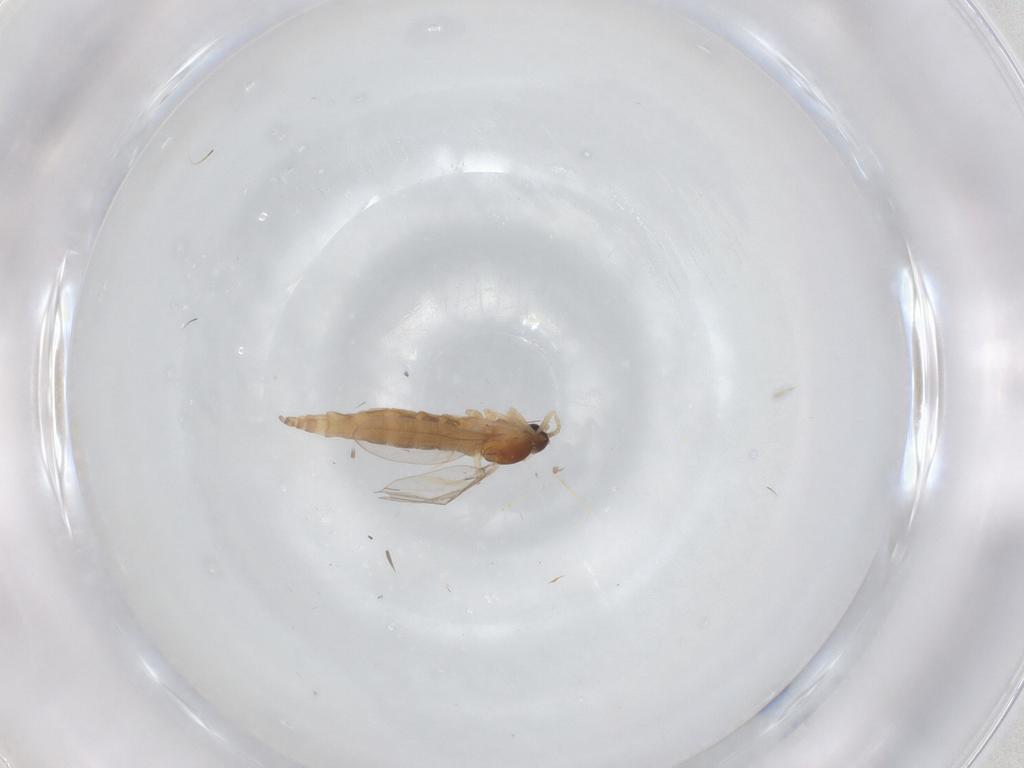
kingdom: Animalia
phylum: Arthropoda
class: Insecta
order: Diptera
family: Cecidomyiidae
